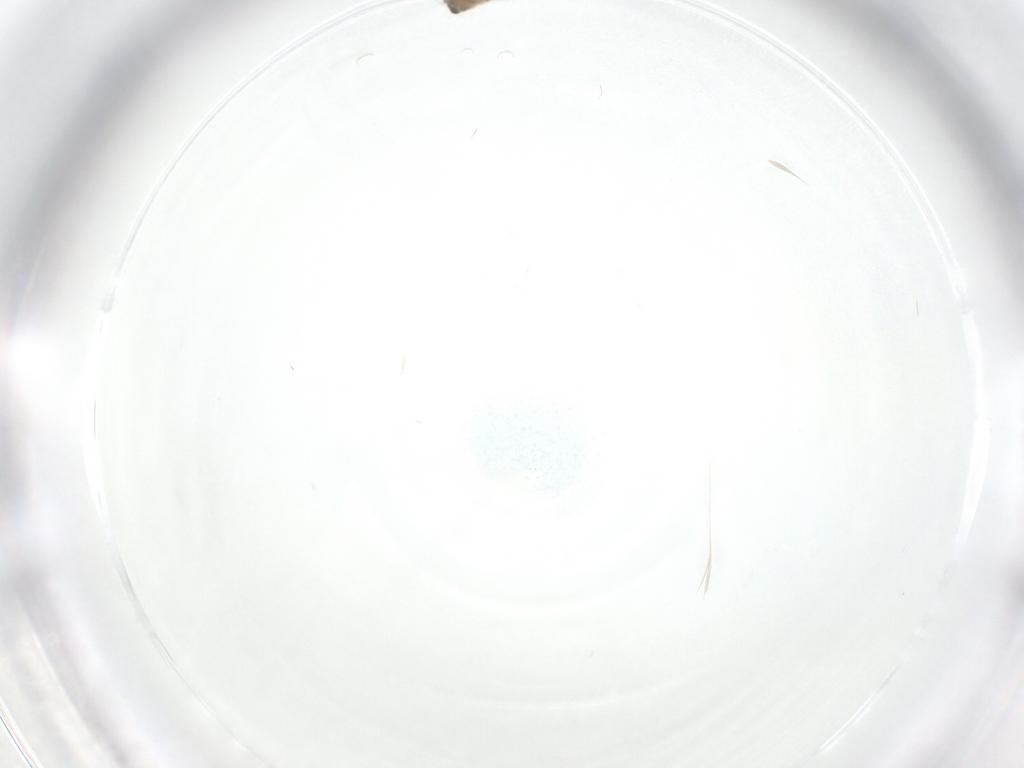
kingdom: Animalia
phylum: Arthropoda
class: Insecta
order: Diptera
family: Chironomidae
